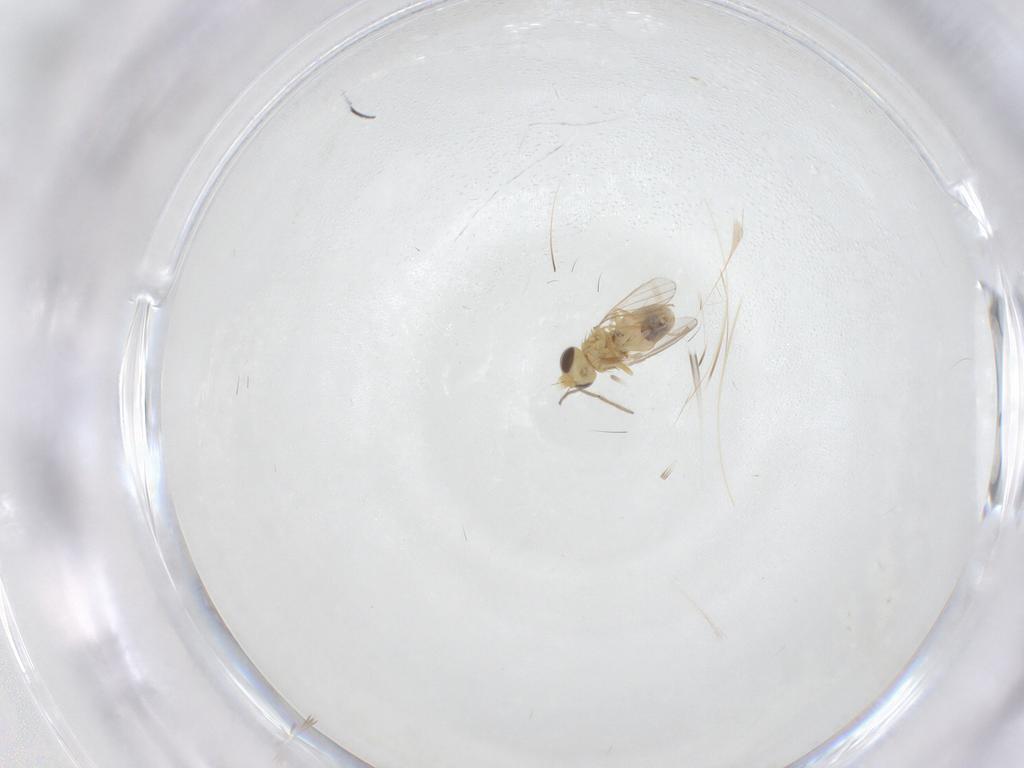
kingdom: Animalia
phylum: Arthropoda
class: Insecta
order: Diptera
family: Chyromyidae
